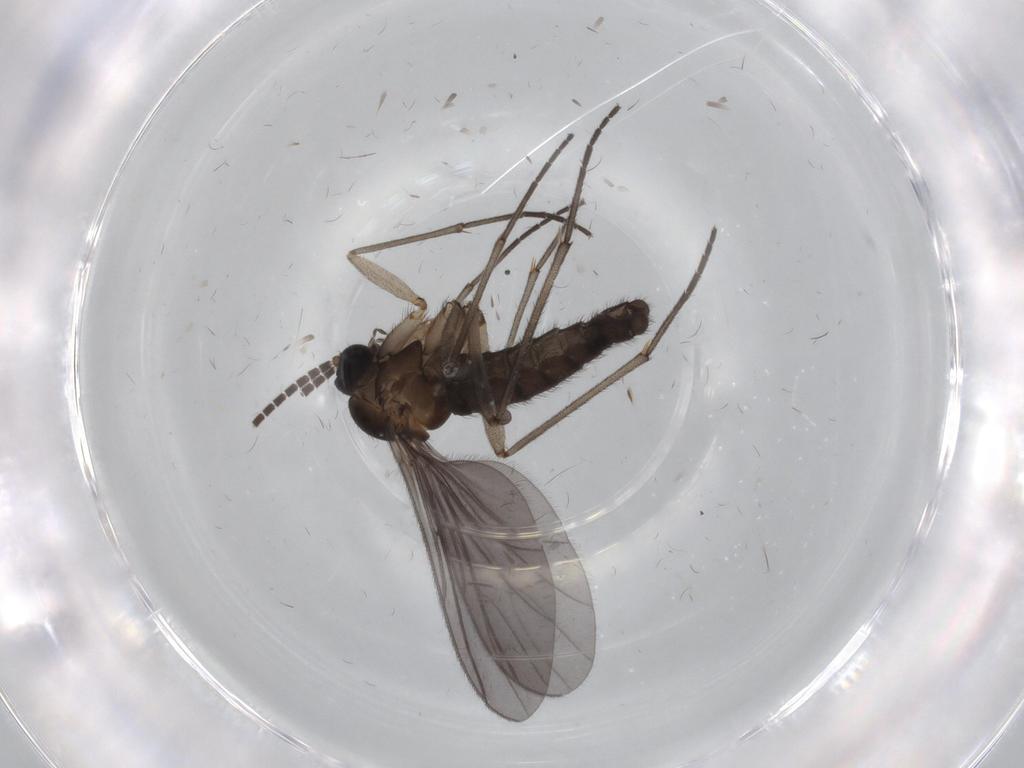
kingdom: Animalia
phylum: Arthropoda
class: Insecta
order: Diptera
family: Sciaridae
